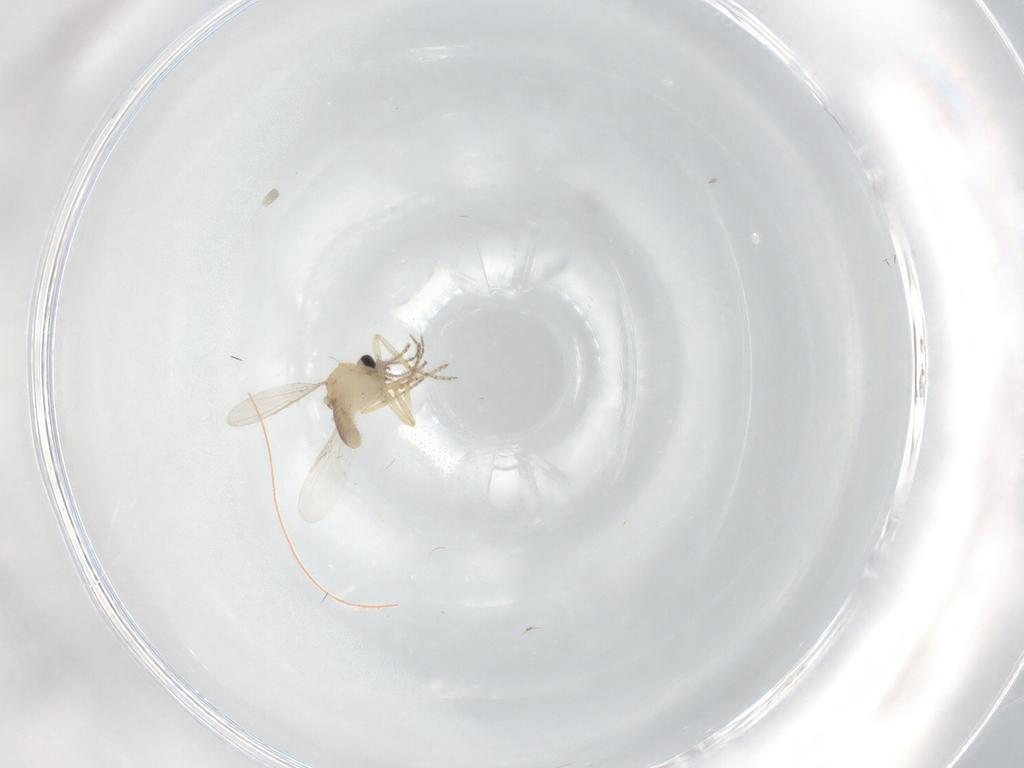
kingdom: Animalia
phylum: Arthropoda
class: Insecta
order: Diptera
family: Ceratopogonidae
